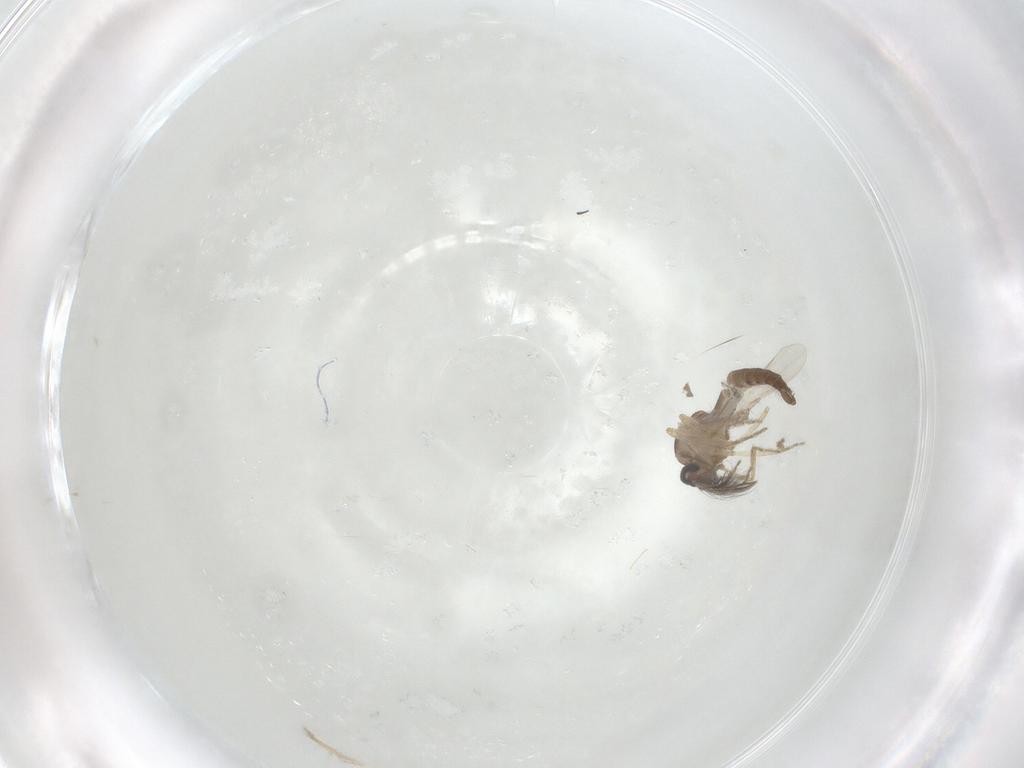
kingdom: Animalia
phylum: Arthropoda
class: Insecta
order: Diptera
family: Ceratopogonidae
